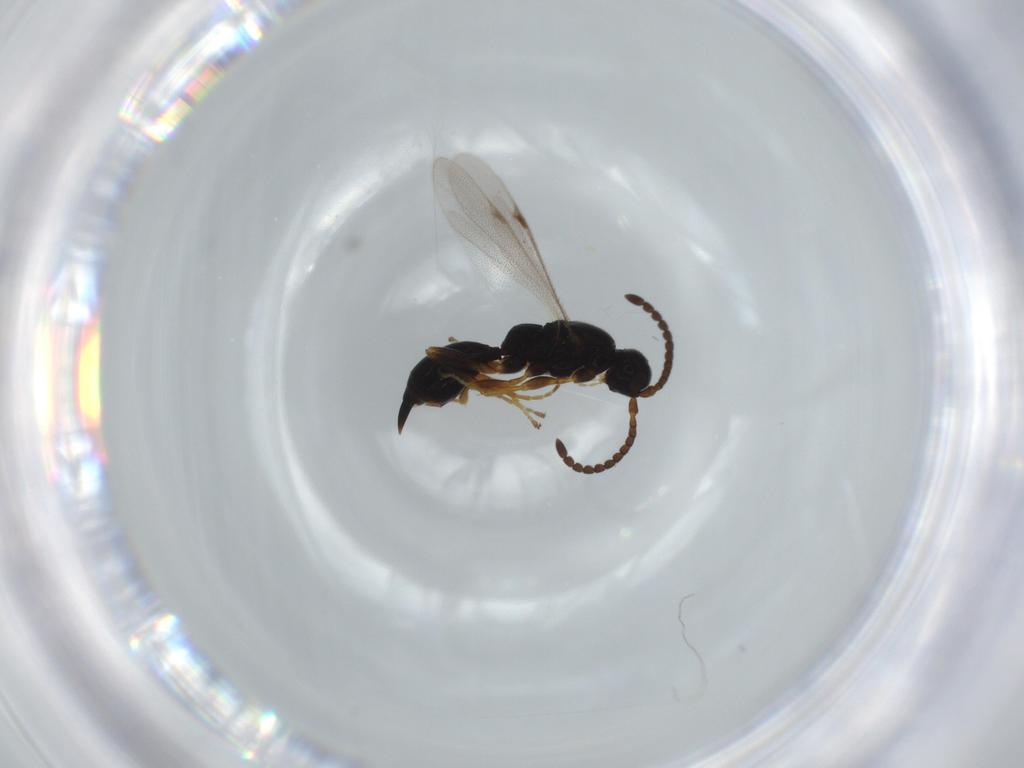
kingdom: Animalia
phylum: Arthropoda
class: Insecta
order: Hymenoptera
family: Proctotrupidae
